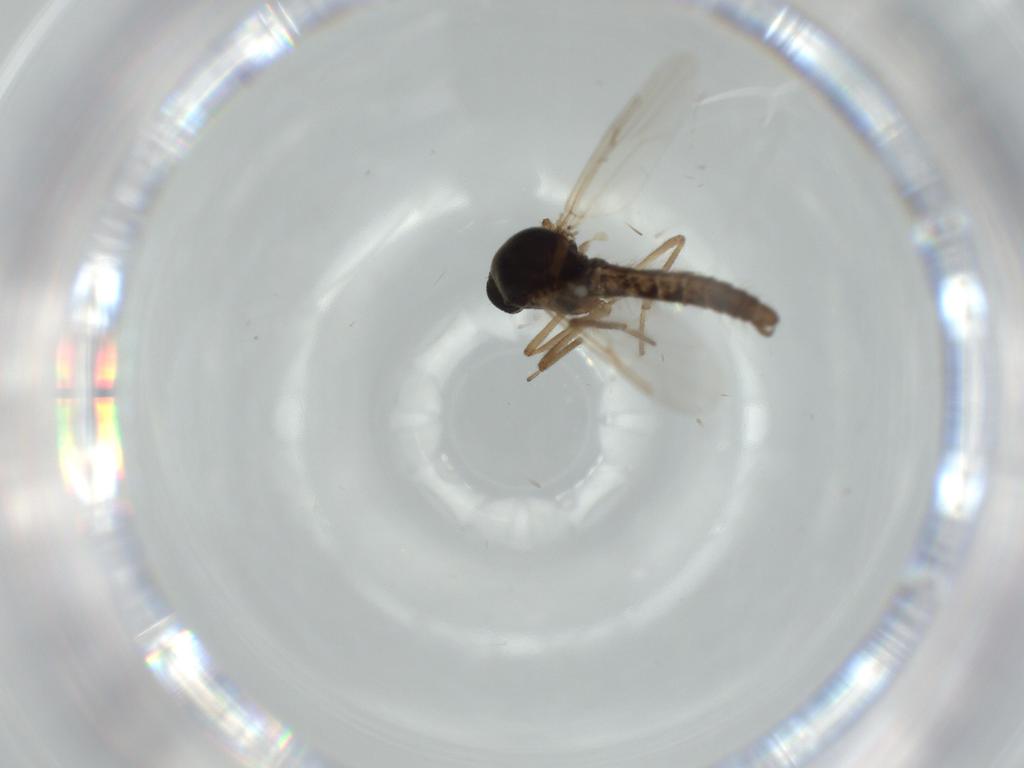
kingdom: Animalia
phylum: Arthropoda
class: Insecta
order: Diptera
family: Ceratopogonidae
